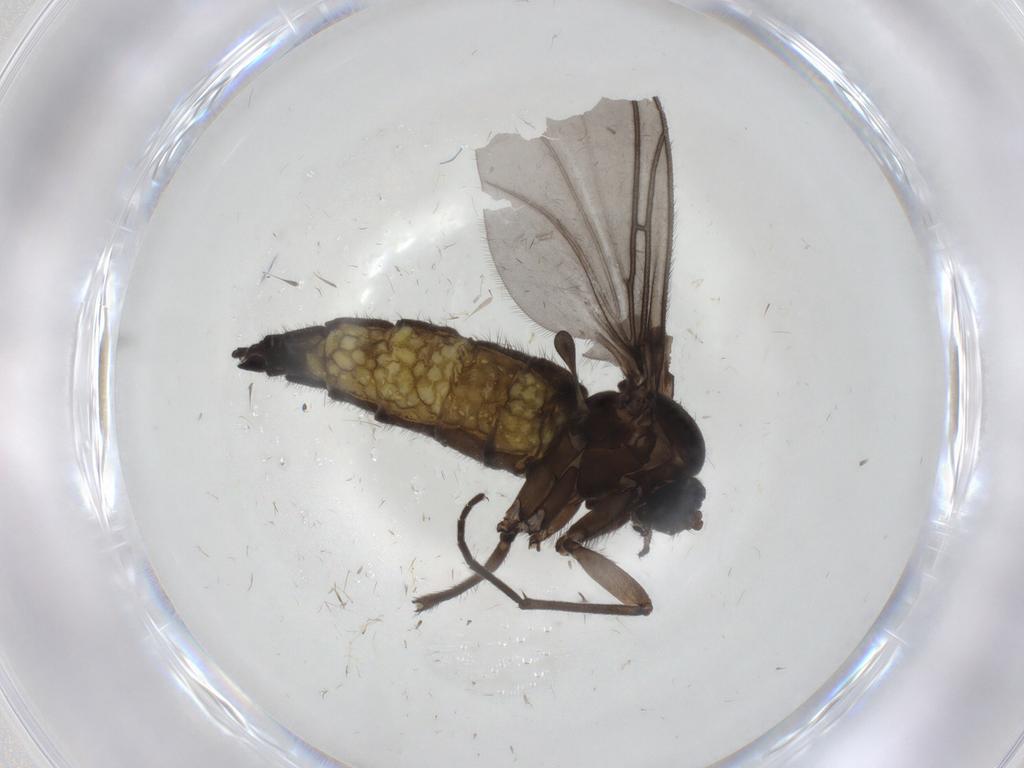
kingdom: Animalia
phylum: Arthropoda
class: Insecta
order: Diptera
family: Sciaridae
